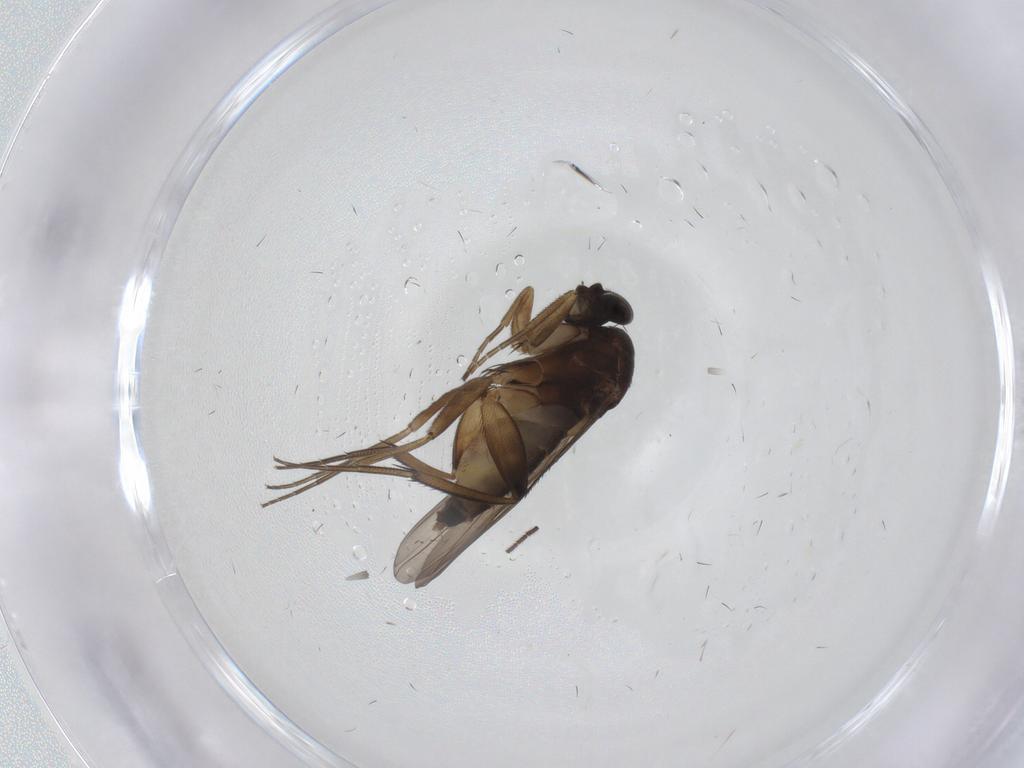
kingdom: Animalia
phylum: Arthropoda
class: Insecta
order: Diptera
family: Phoridae
